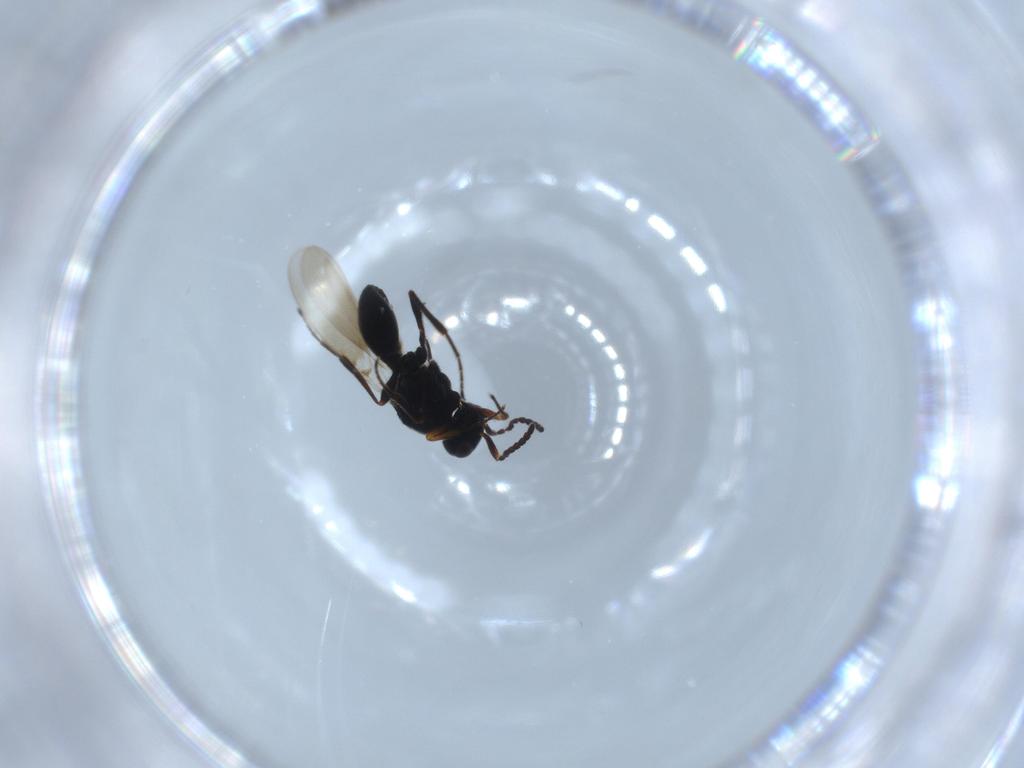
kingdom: Animalia
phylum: Arthropoda
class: Insecta
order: Hymenoptera
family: Platygastridae
